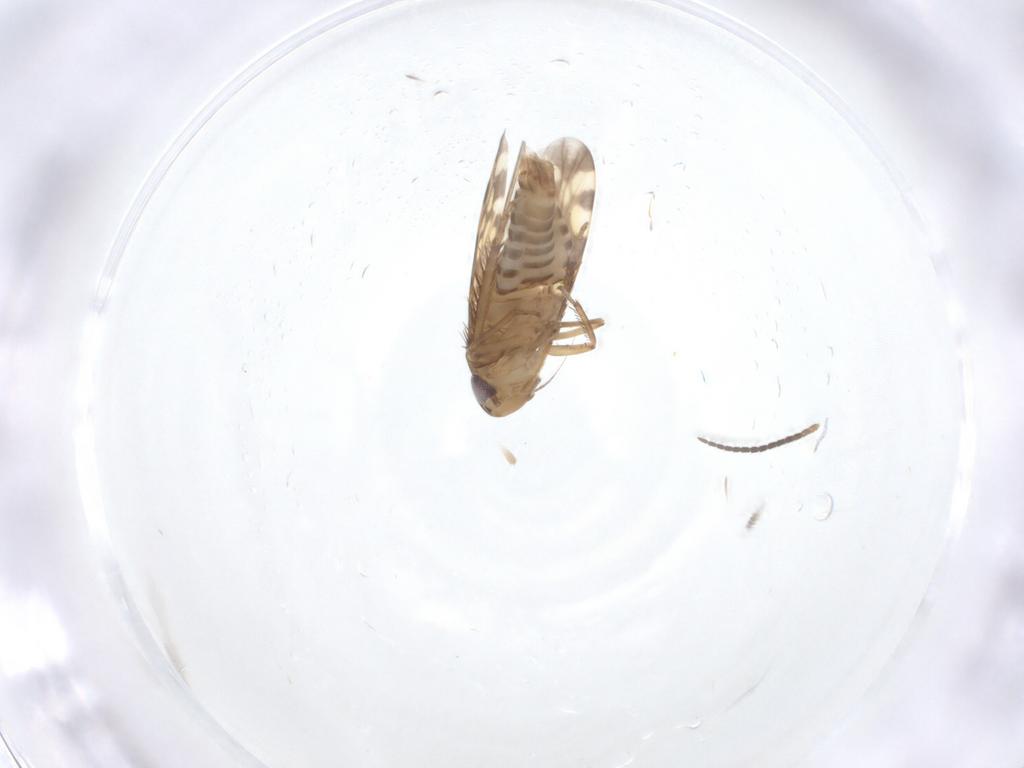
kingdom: Animalia
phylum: Arthropoda
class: Insecta
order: Hemiptera
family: Cicadellidae
